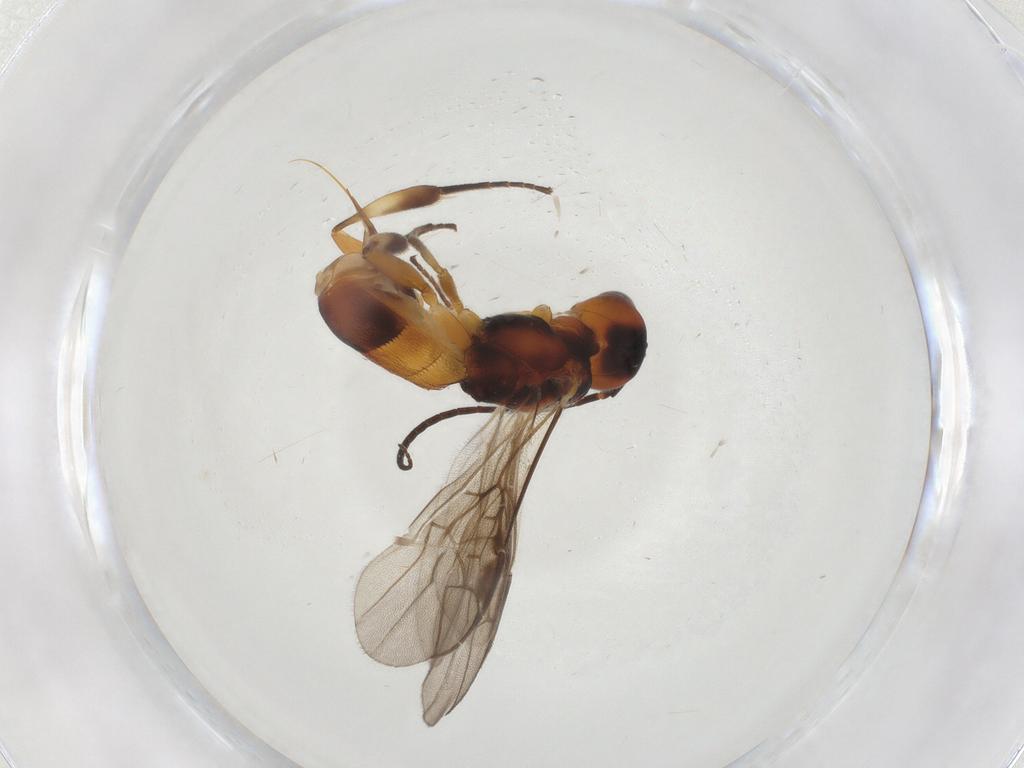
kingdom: Animalia
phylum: Arthropoda
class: Insecta
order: Hymenoptera
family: Braconidae
